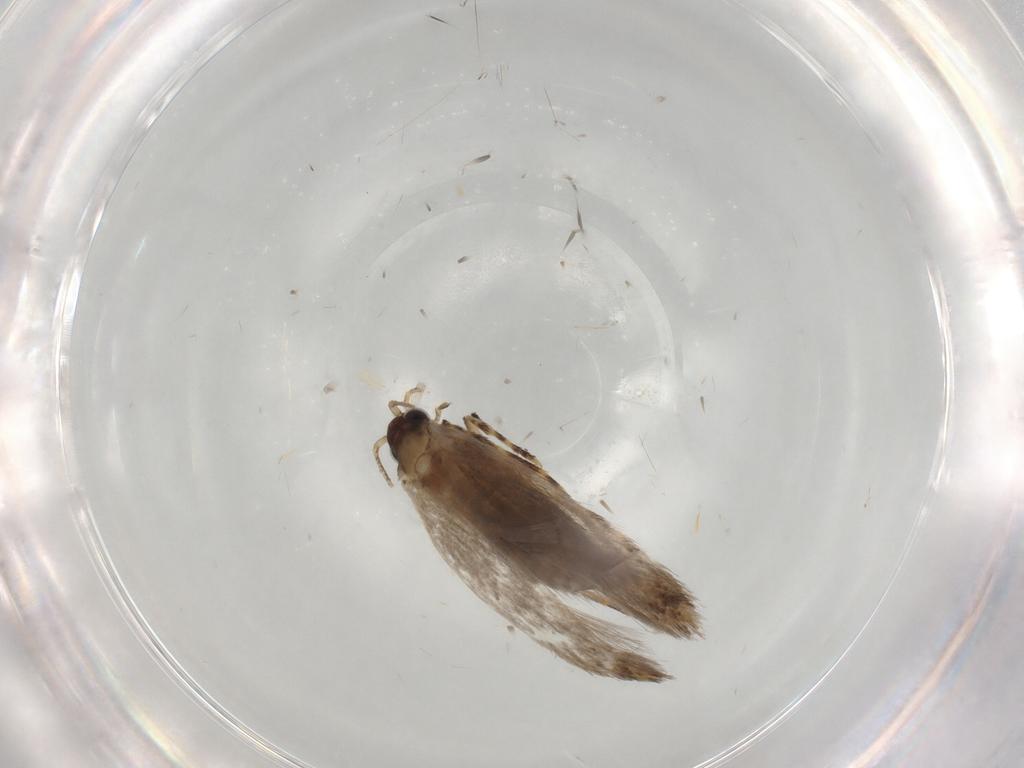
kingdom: Animalia
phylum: Arthropoda
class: Insecta
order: Lepidoptera
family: Tineidae
